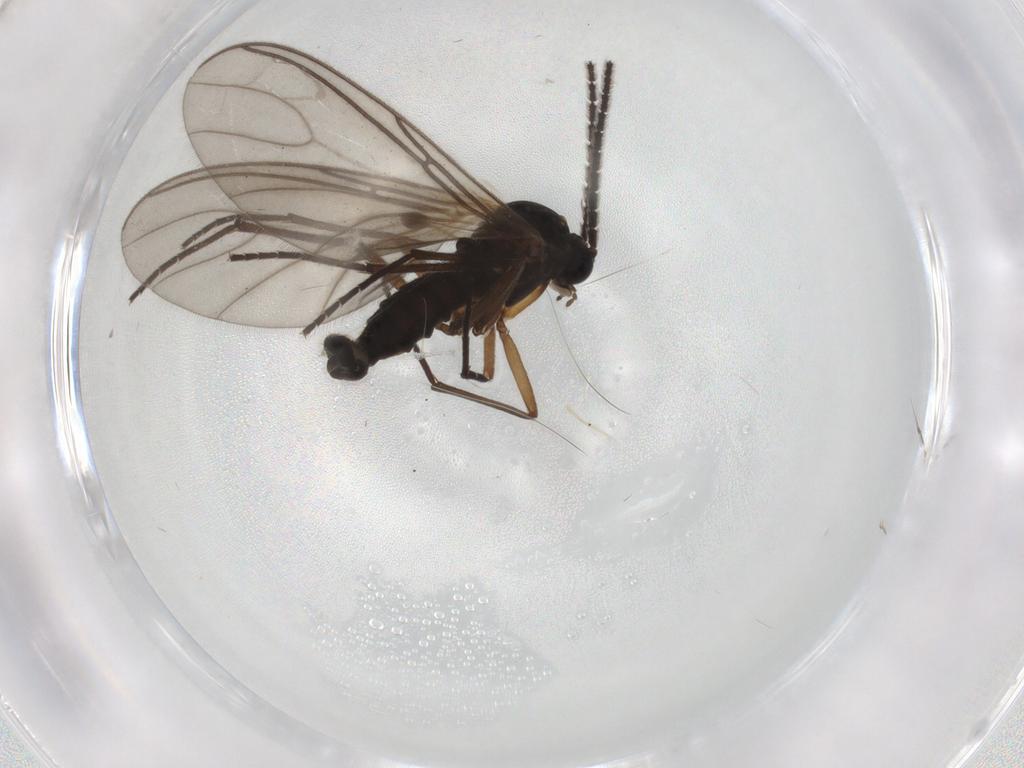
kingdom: Animalia
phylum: Arthropoda
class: Insecta
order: Diptera
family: Sciaridae
